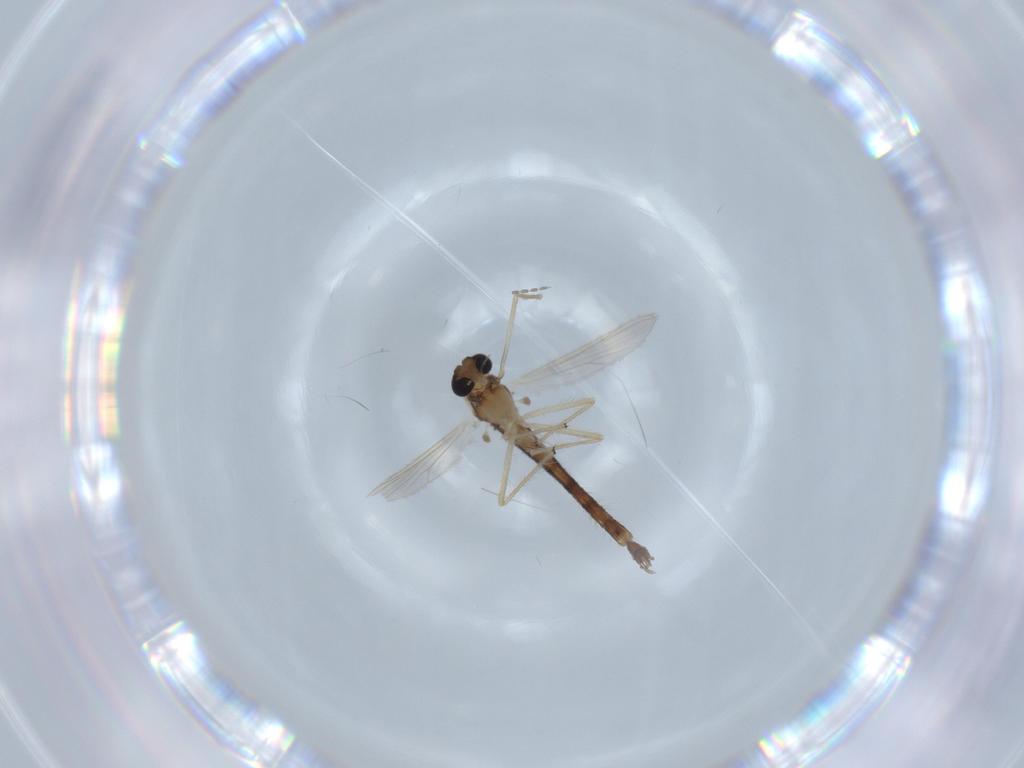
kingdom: Animalia
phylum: Arthropoda
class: Insecta
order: Diptera
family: Chironomidae
